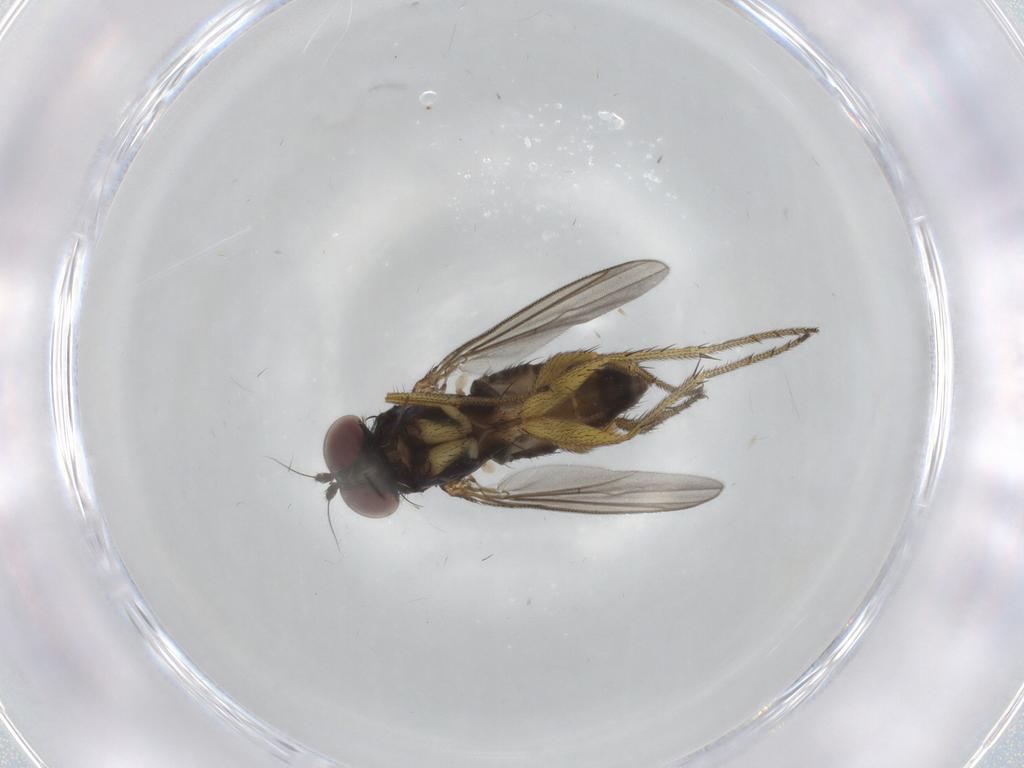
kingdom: Animalia
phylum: Arthropoda
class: Insecta
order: Diptera
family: Dolichopodidae
